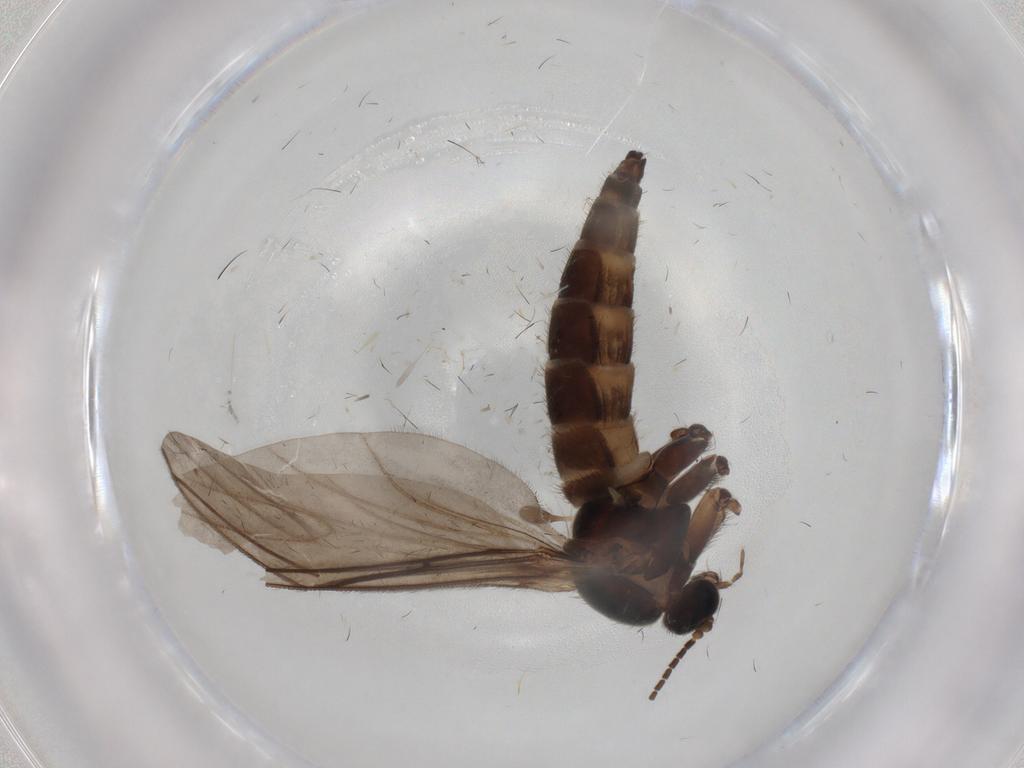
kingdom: Animalia
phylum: Arthropoda
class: Insecta
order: Diptera
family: Sciaridae
